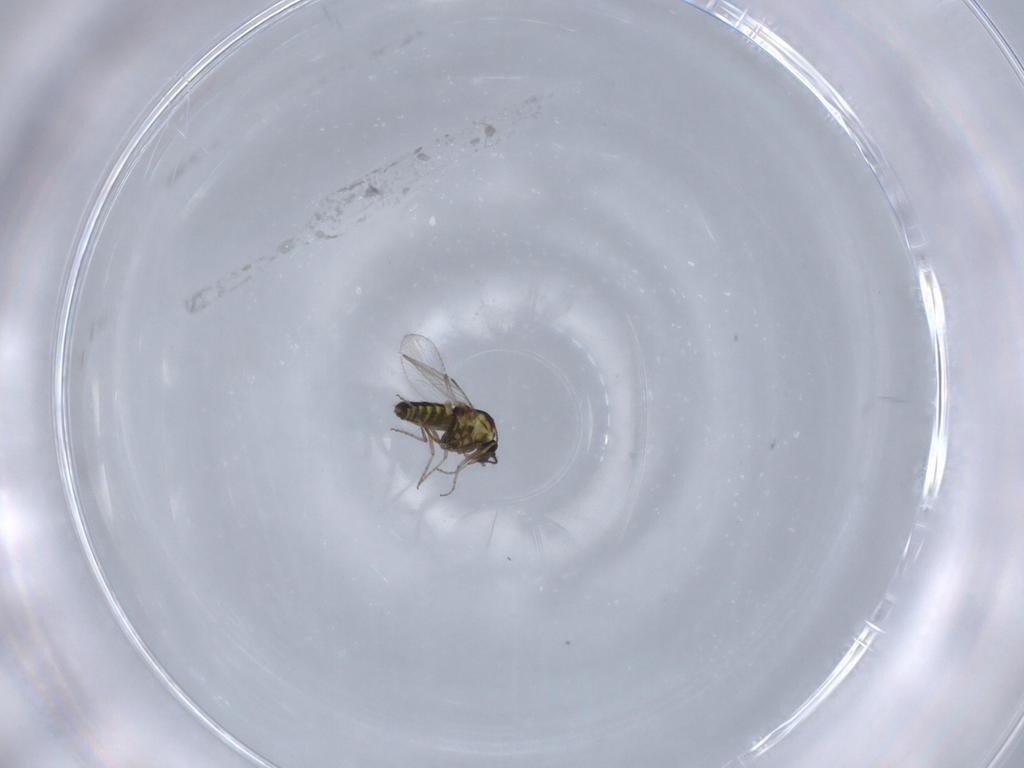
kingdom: Animalia
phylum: Arthropoda
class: Insecta
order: Diptera
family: Ceratopogonidae
